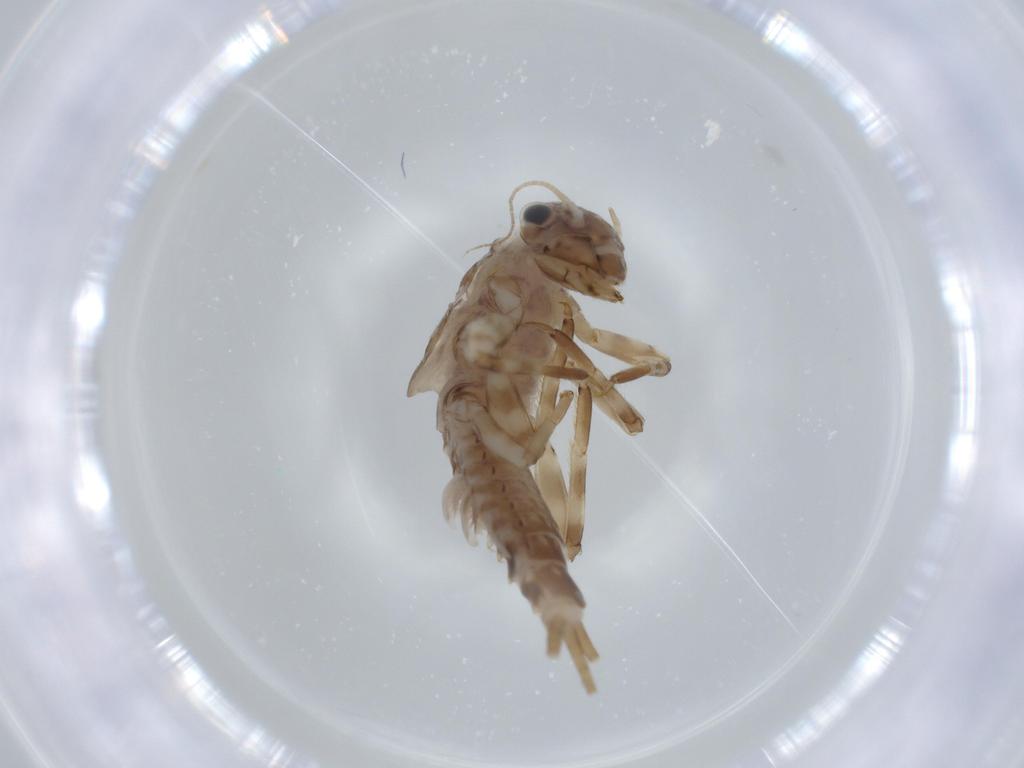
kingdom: Animalia
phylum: Arthropoda
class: Insecta
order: Ephemeroptera
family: Ephemerellidae
